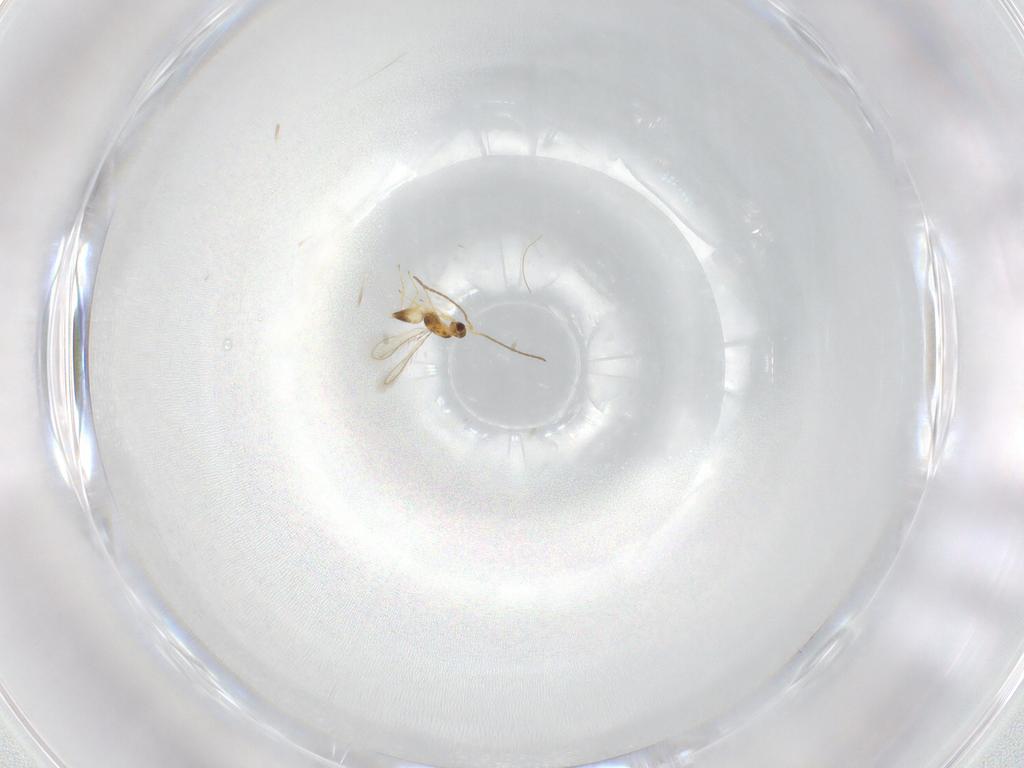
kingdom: Animalia
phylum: Arthropoda
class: Insecta
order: Hymenoptera
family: Mymaridae
